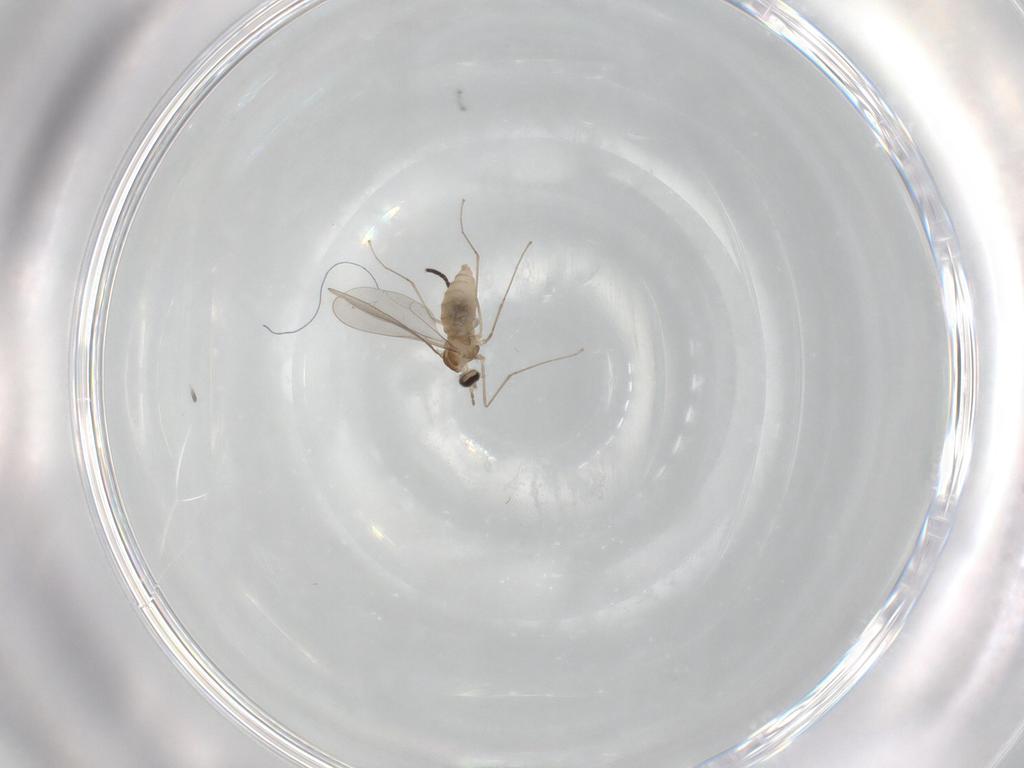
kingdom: Animalia
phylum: Arthropoda
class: Insecta
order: Diptera
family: Cecidomyiidae
